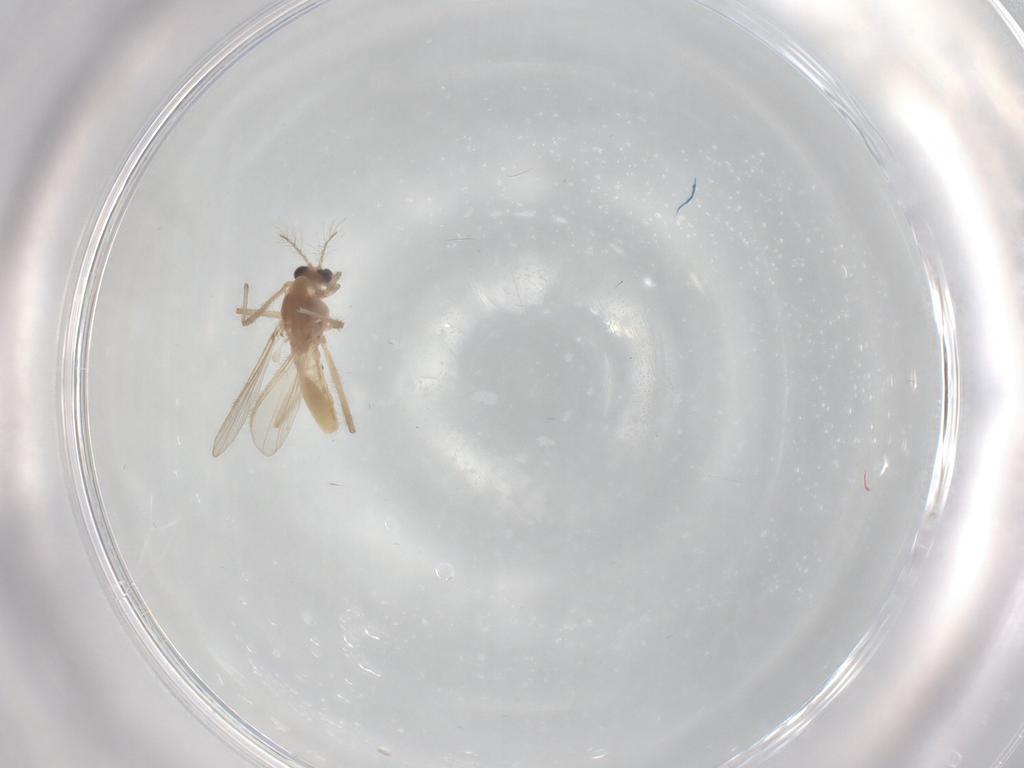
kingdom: Animalia
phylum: Arthropoda
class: Insecta
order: Diptera
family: Chironomidae
